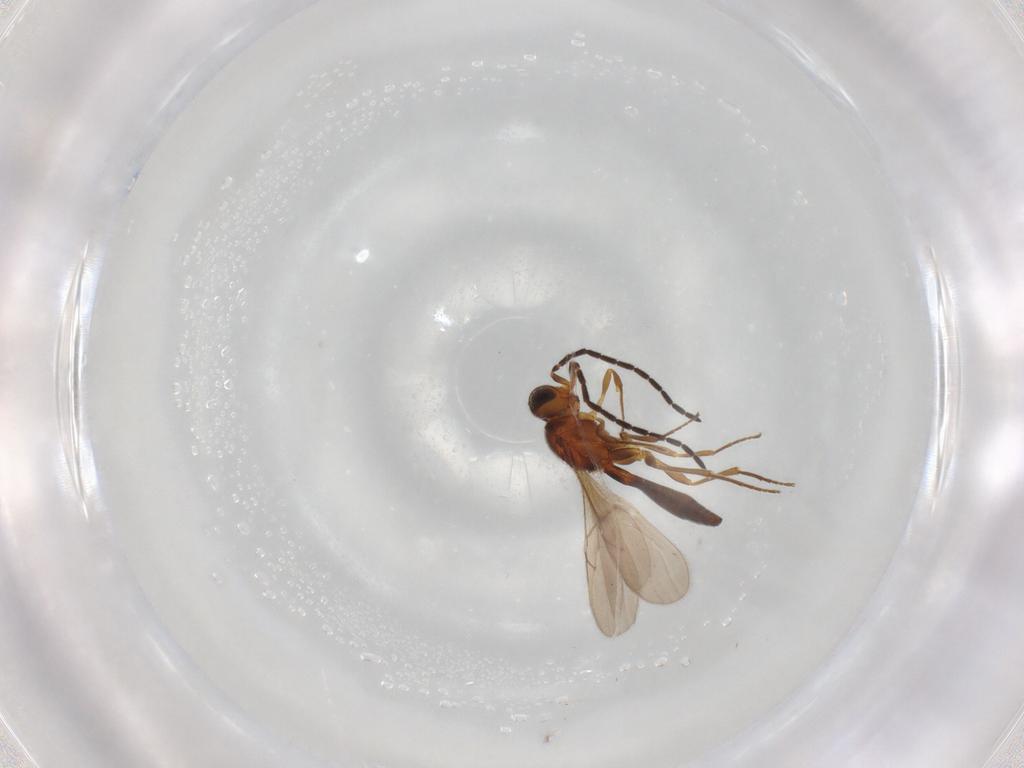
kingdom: Animalia
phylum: Arthropoda
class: Insecta
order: Hymenoptera
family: Scelionidae
